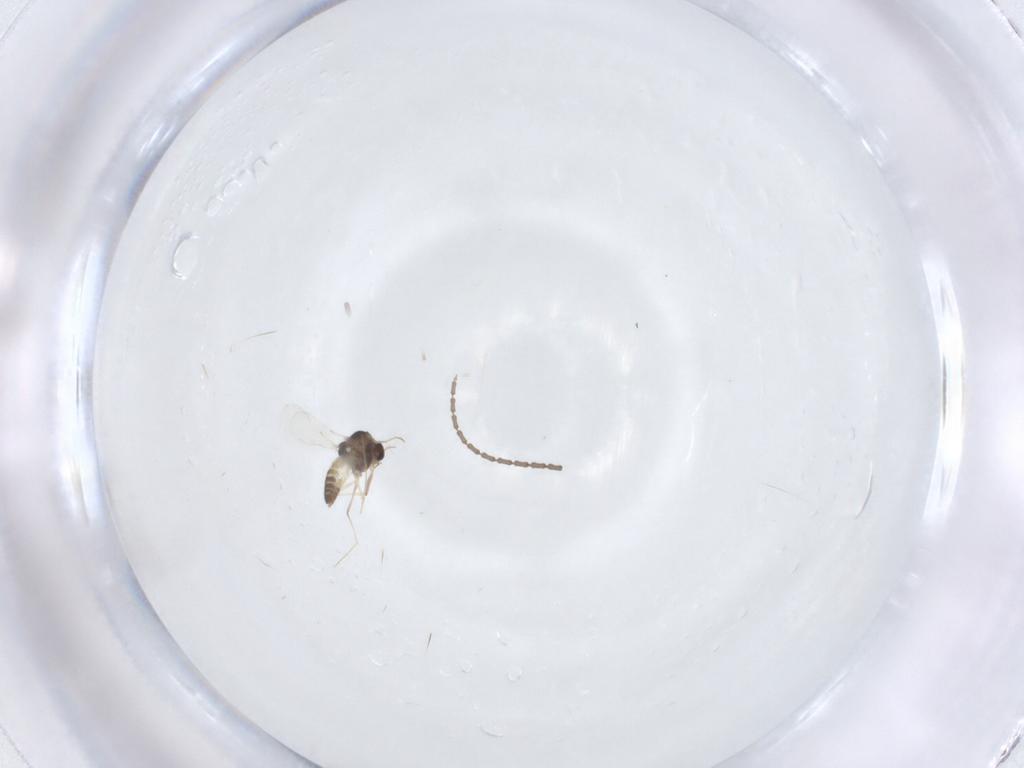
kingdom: Animalia
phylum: Arthropoda
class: Insecta
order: Diptera
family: Chironomidae
